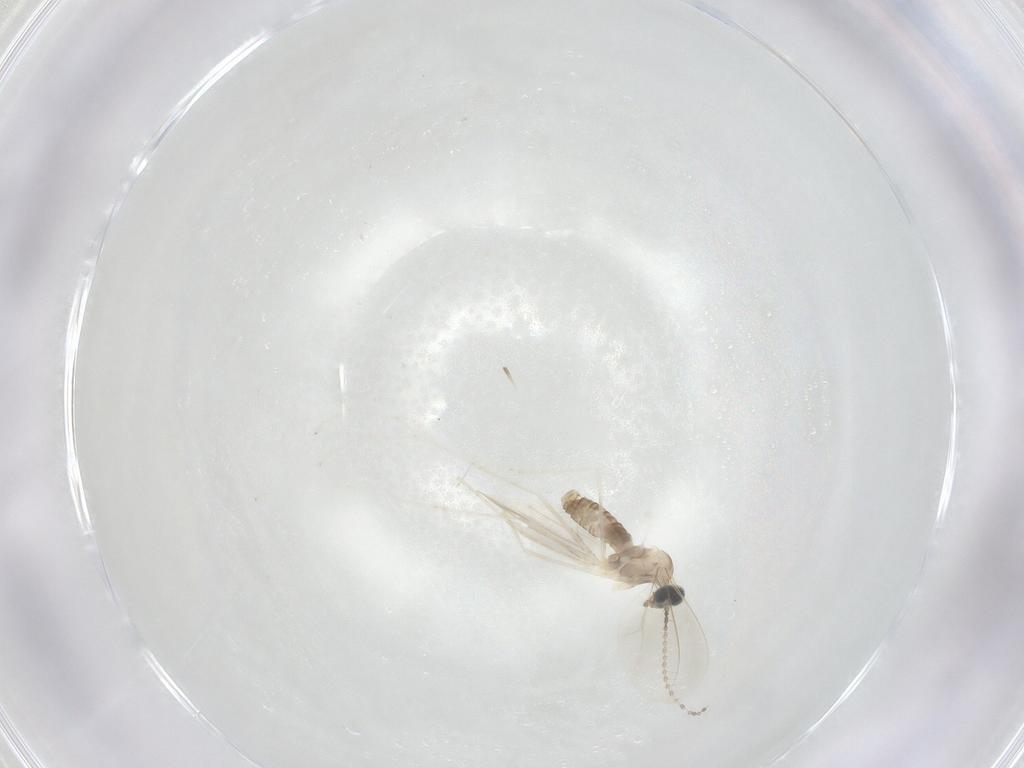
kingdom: Animalia
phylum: Arthropoda
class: Insecta
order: Diptera
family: Cecidomyiidae
